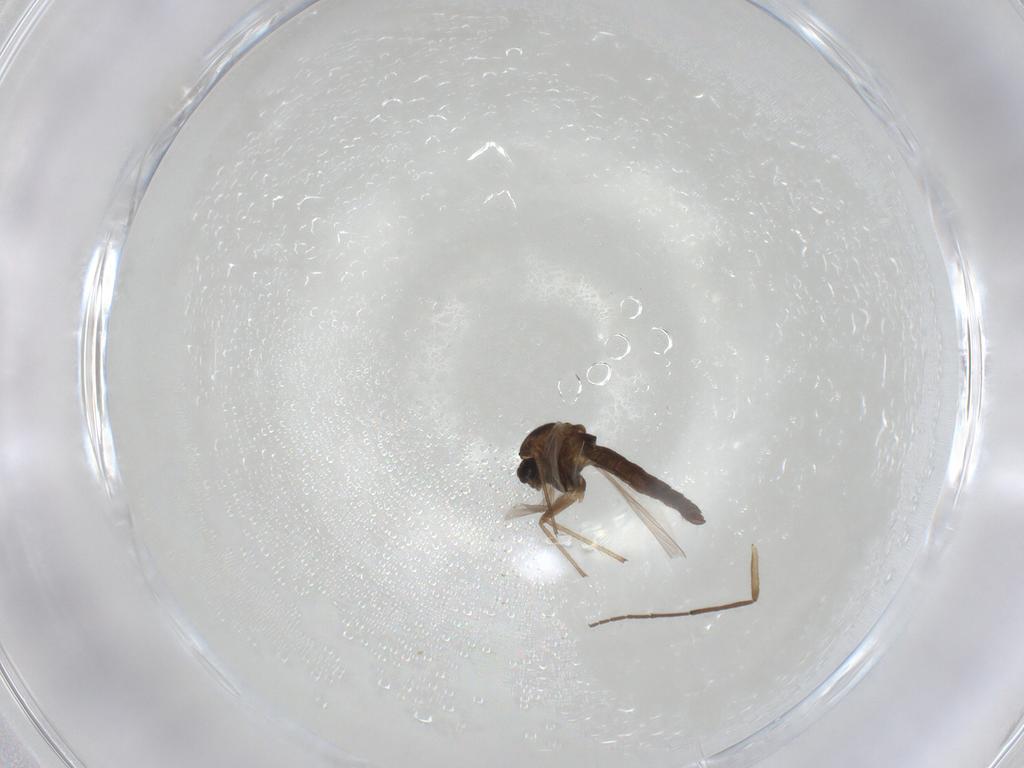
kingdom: Animalia
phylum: Arthropoda
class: Insecta
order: Diptera
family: Chironomidae
